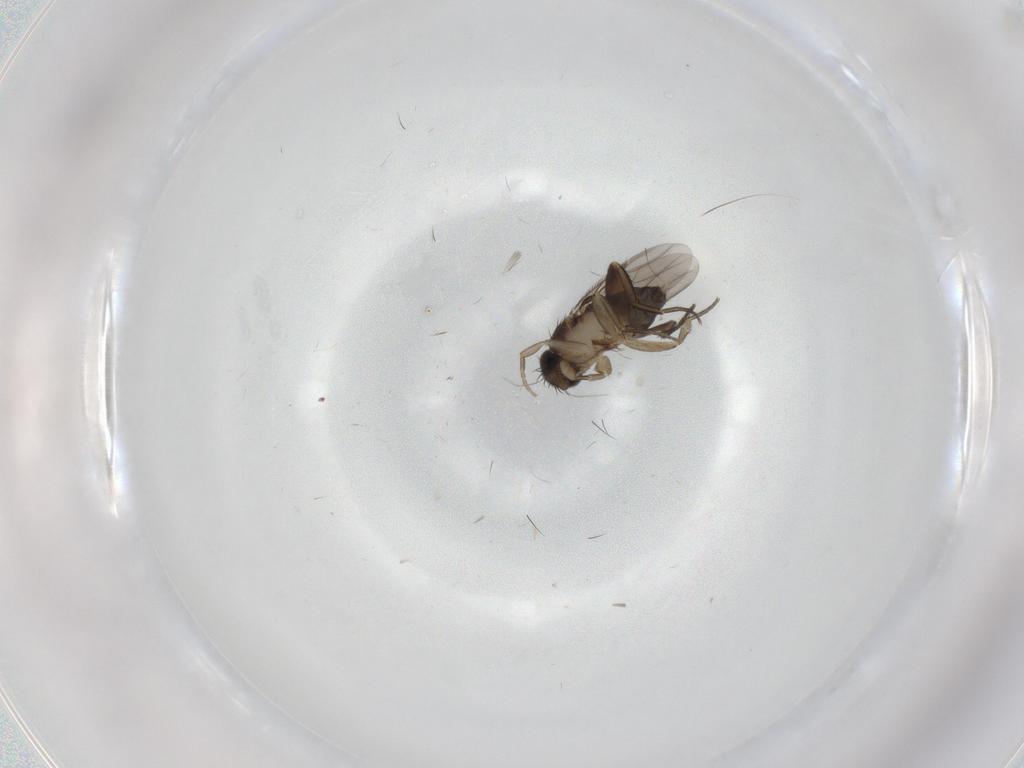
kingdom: Animalia
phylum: Arthropoda
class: Insecta
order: Diptera
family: Phoridae
